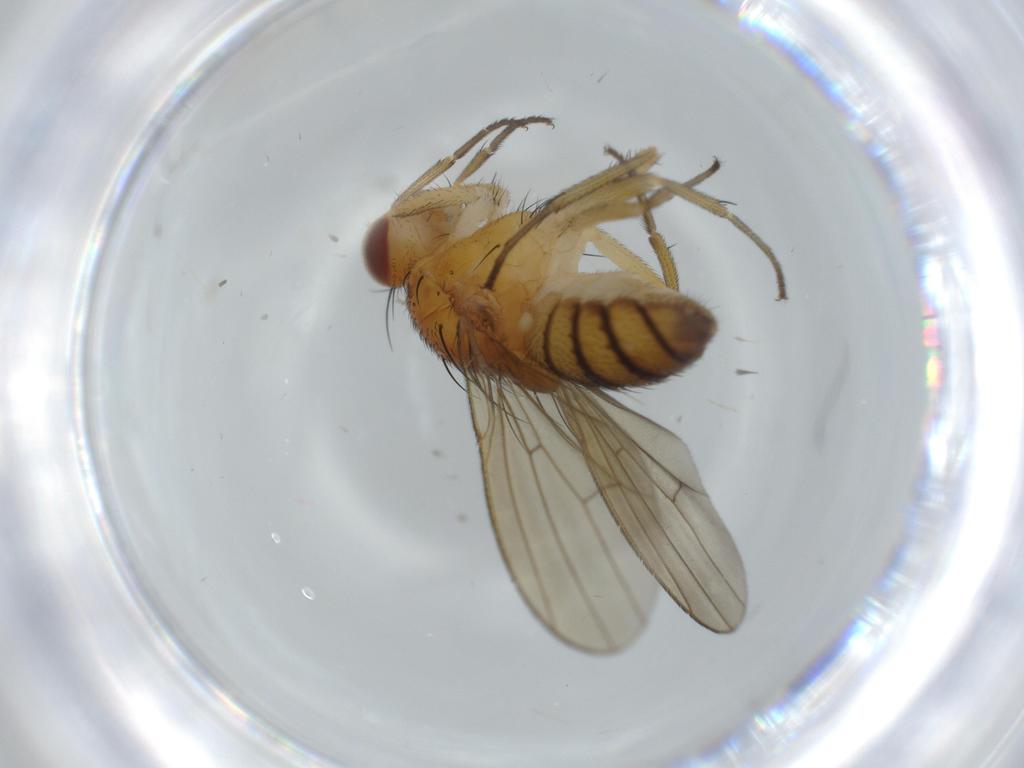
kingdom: Animalia
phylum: Arthropoda
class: Insecta
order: Diptera
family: Lauxaniidae
